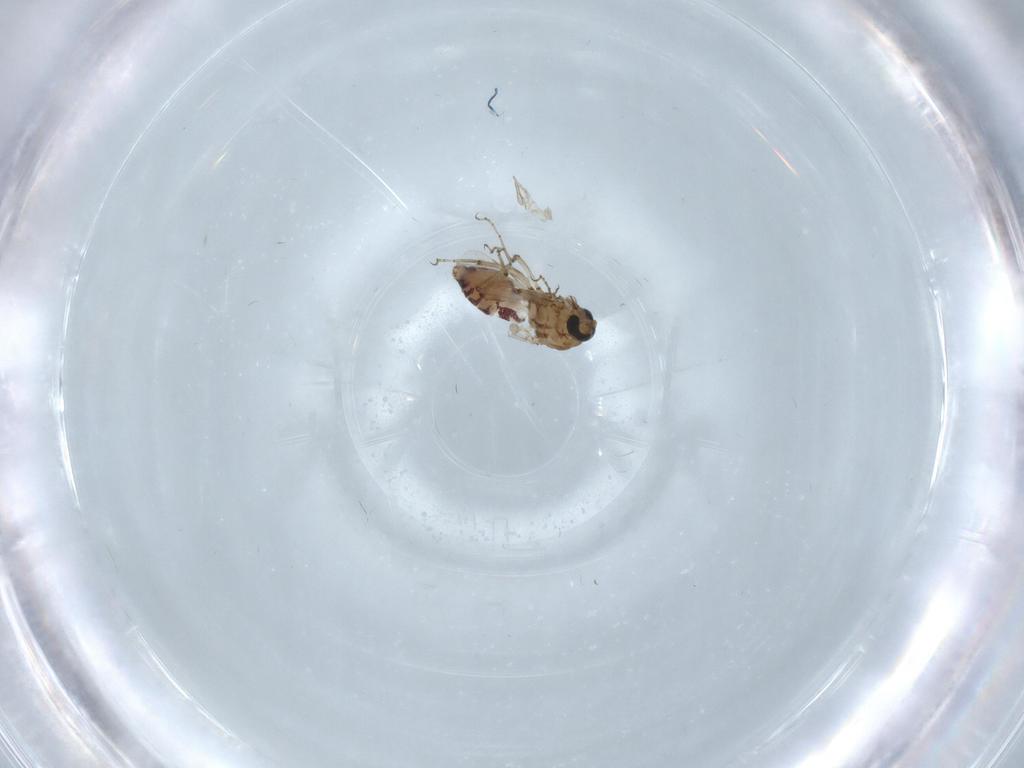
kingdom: Animalia
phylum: Arthropoda
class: Insecta
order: Diptera
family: Ceratopogonidae
